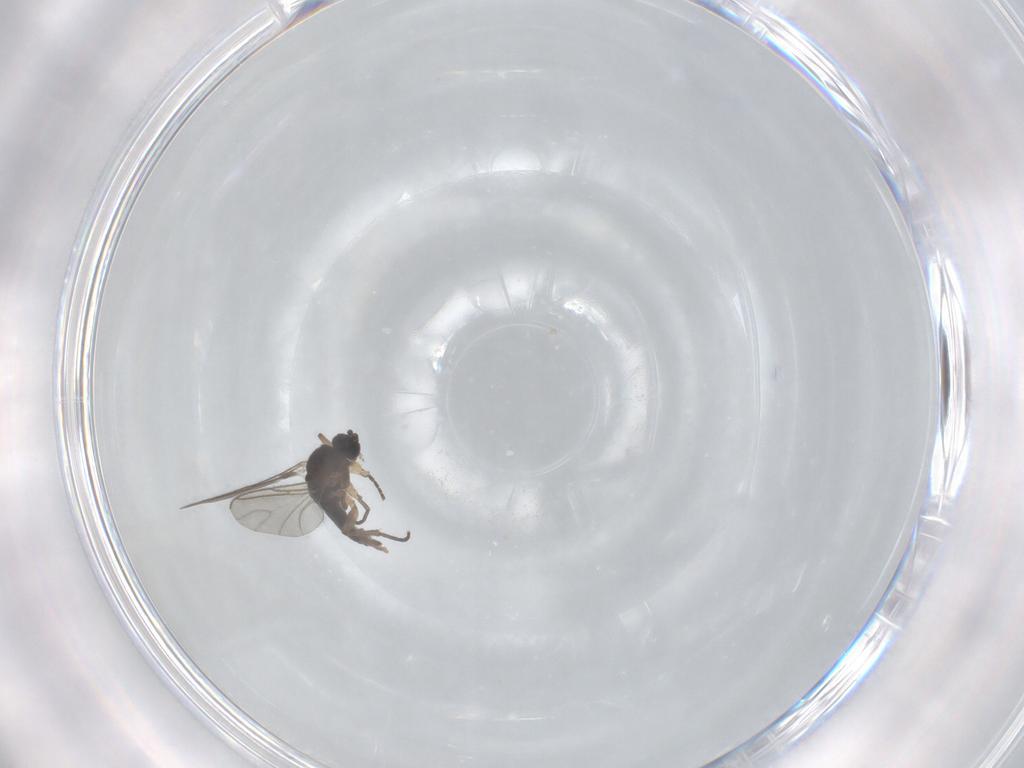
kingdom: Animalia
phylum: Arthropoda
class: Insecta
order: Diptera
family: Sciaridae
